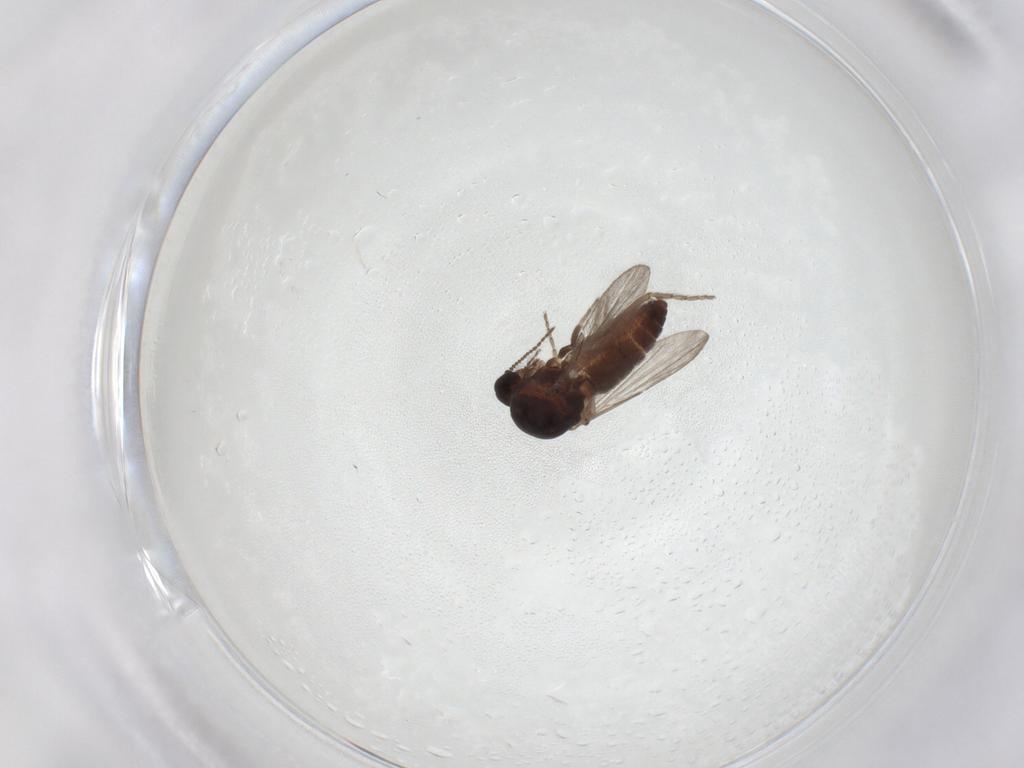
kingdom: Animalia
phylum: Arthropoda
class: Insecta
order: Diptera
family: Ceratopogonidae
